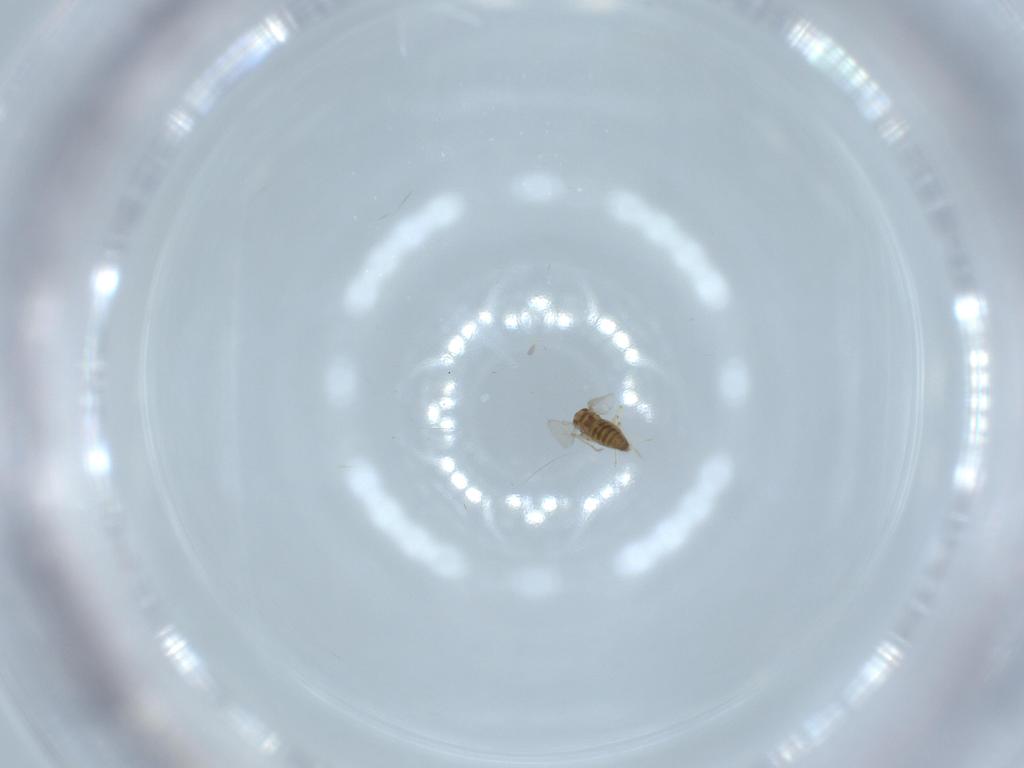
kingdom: Animalia
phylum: Arthropoda
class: Insecta
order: Diptera
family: Chironomidae
